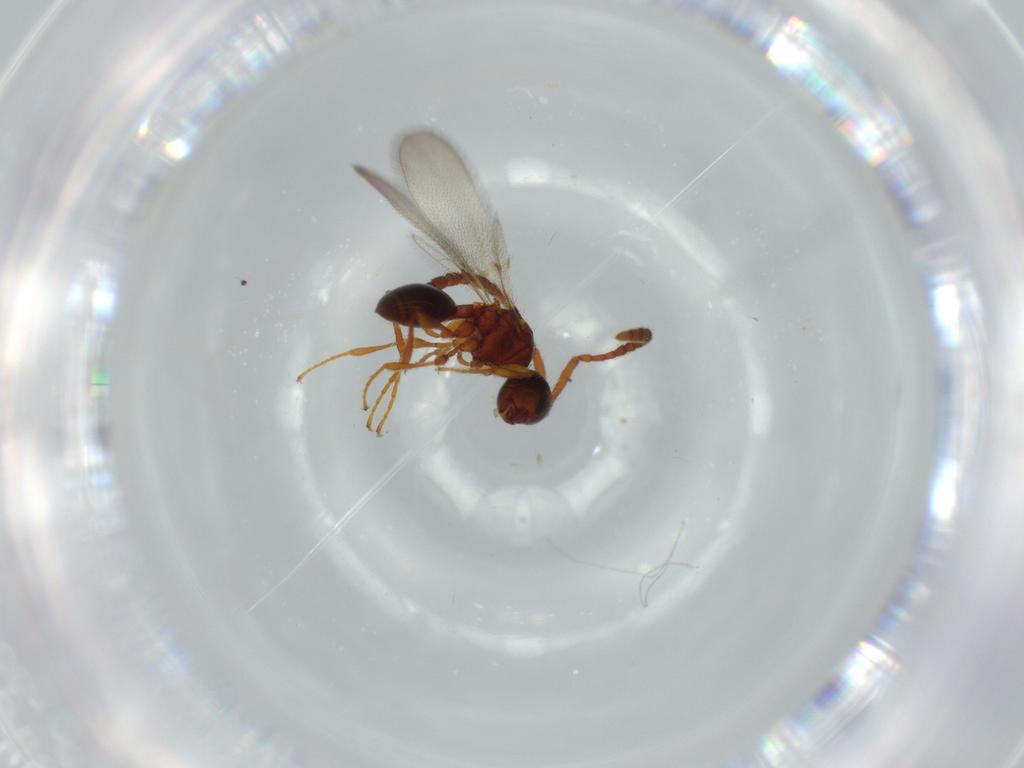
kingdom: Animalia
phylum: Arthropoda
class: Insecta
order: Hymenoptera
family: Diapriidae
